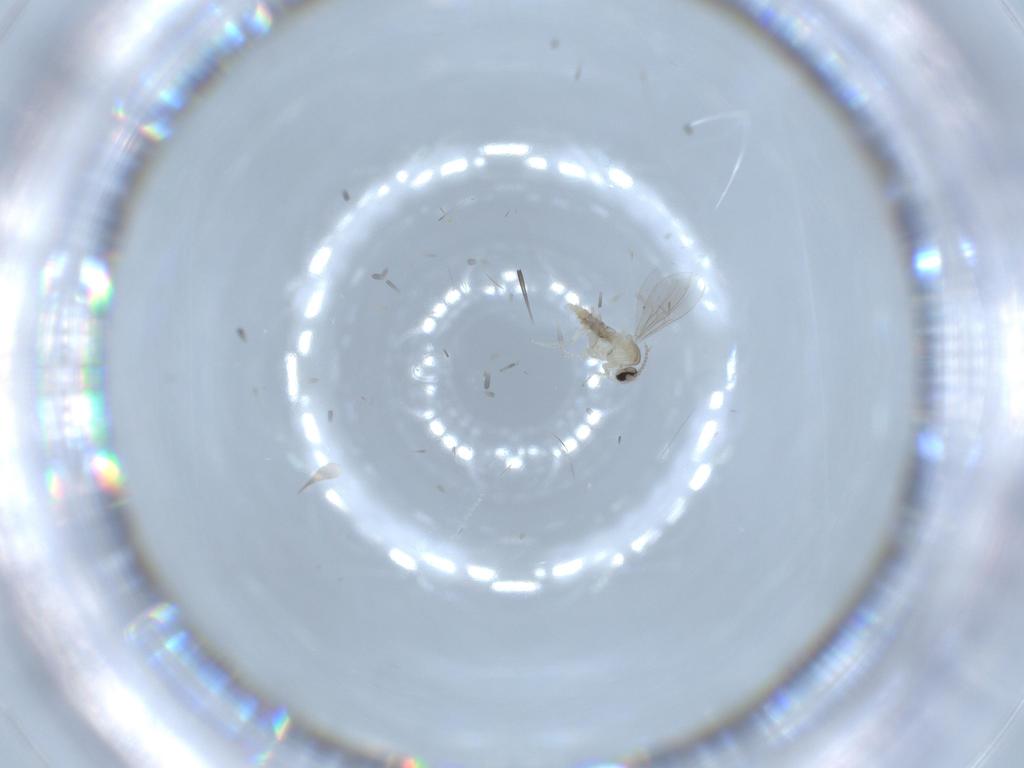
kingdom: Animalia
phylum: Arthropoda
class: Insecta
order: Diptera
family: Cecidomyiidae
